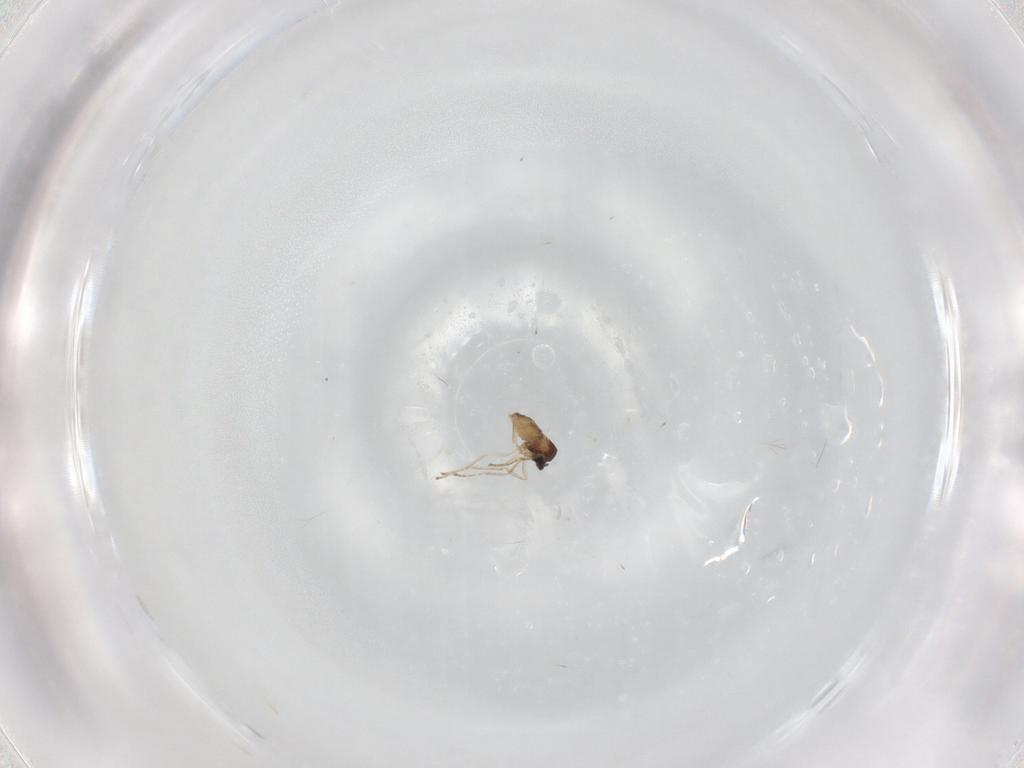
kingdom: Animalia
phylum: Arthropoda
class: Insecta
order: Diptera
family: Cecidomyiidae
